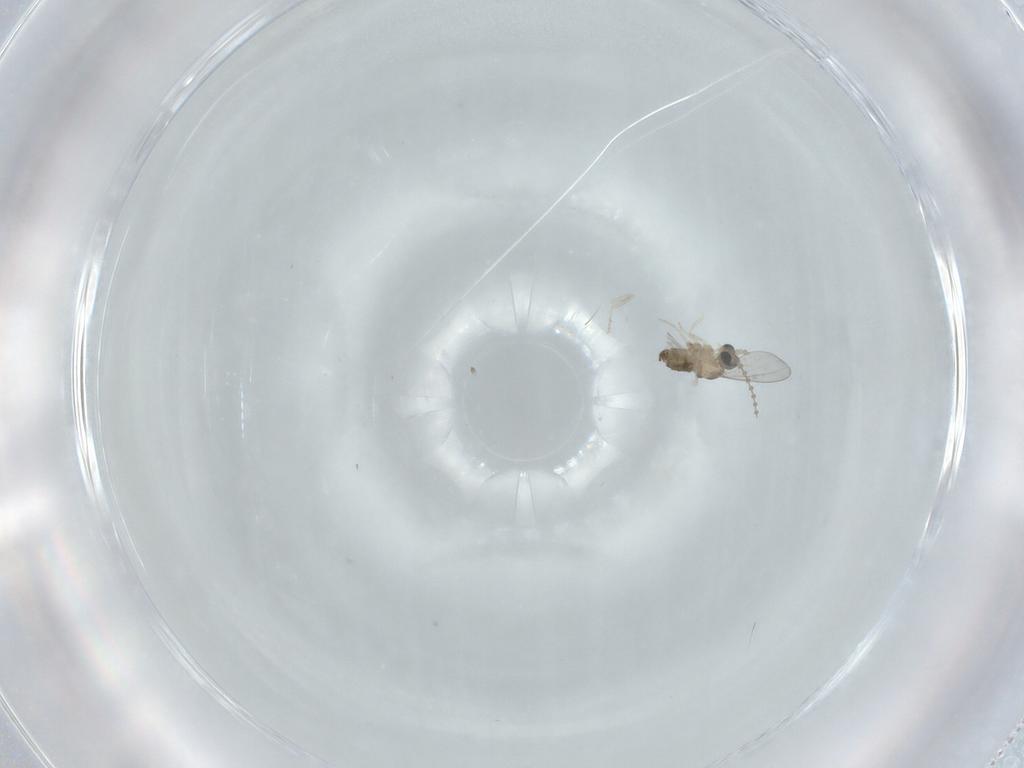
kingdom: Animalia
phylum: Arthropoda
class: Insecta
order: Diptera
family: Cecidomyiidae
